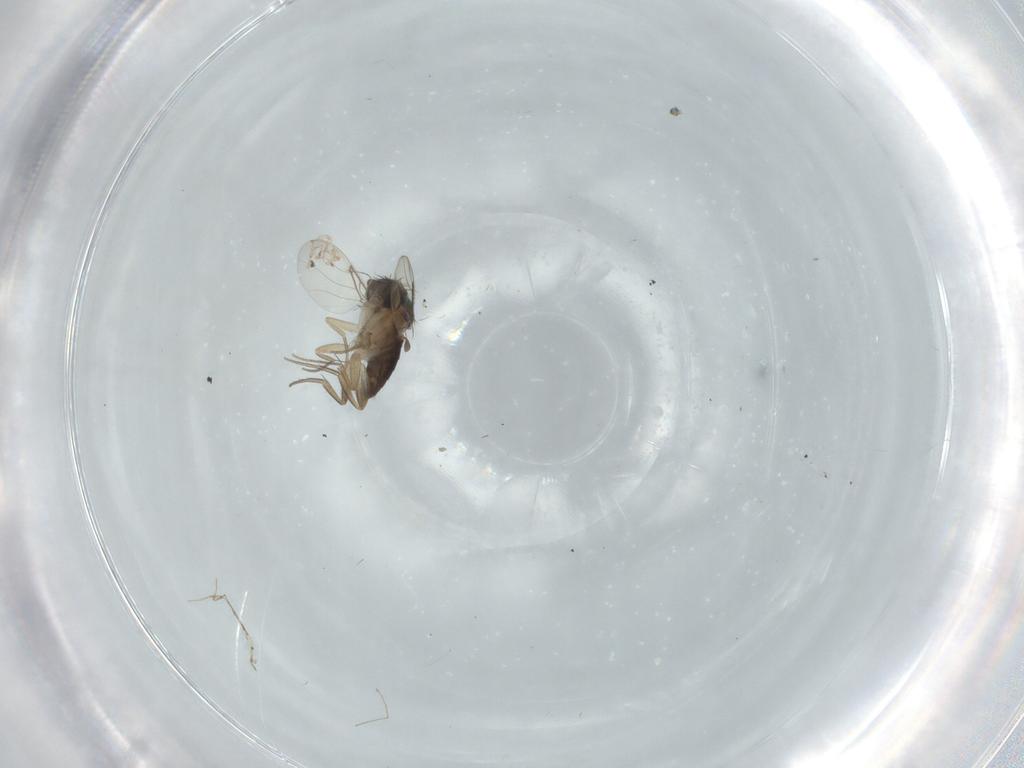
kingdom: Animalia
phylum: Arthropoda
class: Insecta
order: Diptera
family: Phoridae
